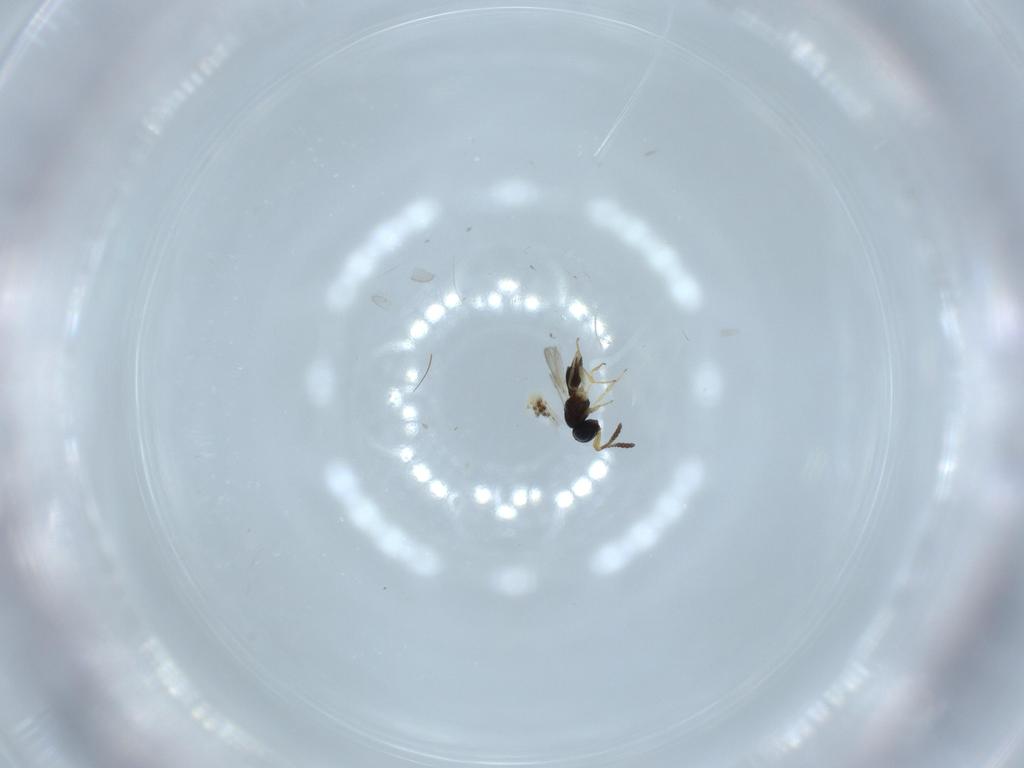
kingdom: Animalia
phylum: Arthropoda
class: Insecta
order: Hymenoptera
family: Scelionidae
